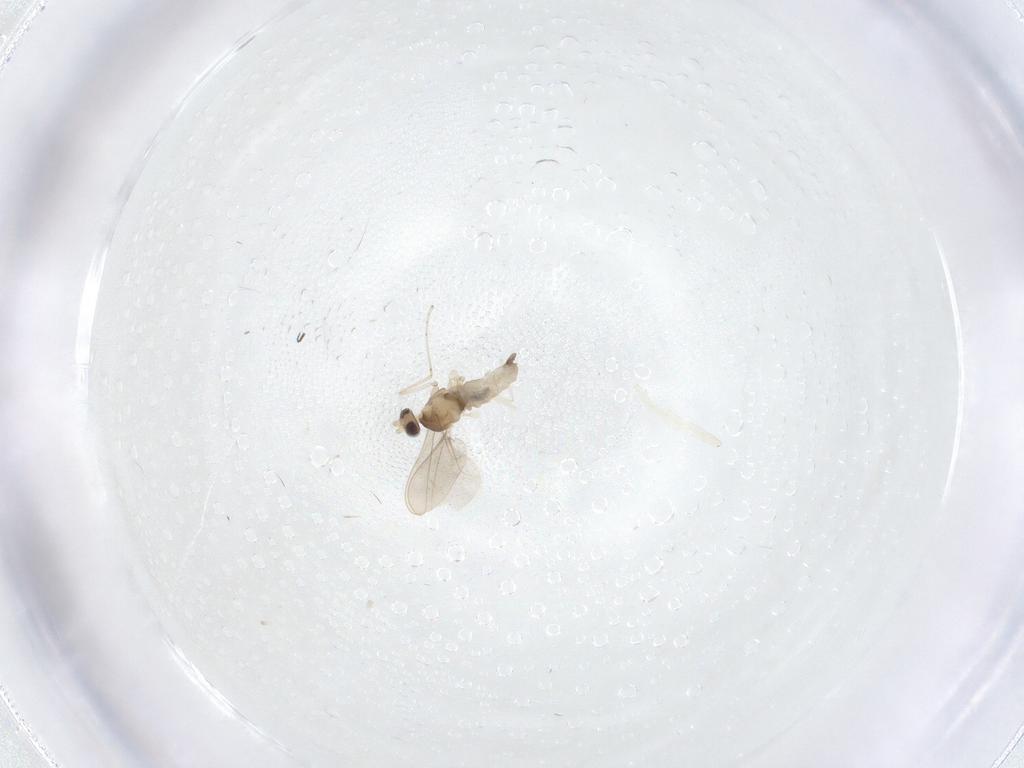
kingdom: Animalia
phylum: Arthropoda
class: Insecta
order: Diptera
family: Cecidomyiidae
